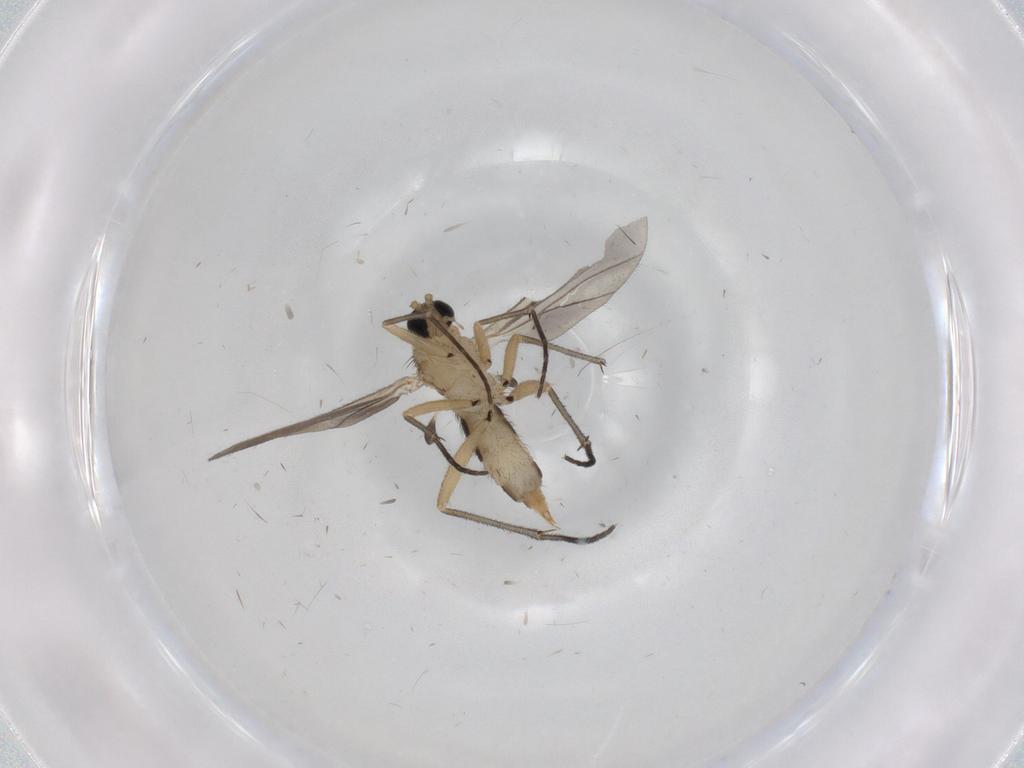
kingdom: Animalia
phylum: Arthropoda
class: Insecta
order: Diptera
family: Sciaridae
